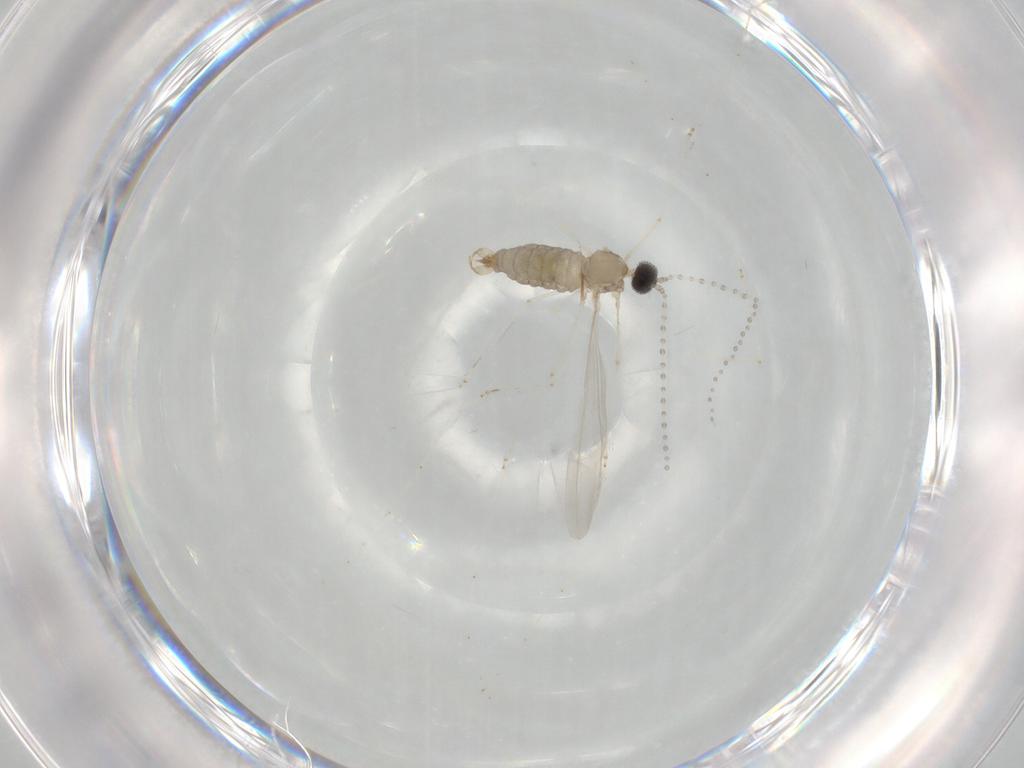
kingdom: Animalia
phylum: Arthropoda
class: Insecta
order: Diptera
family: Cecidomyiidae
